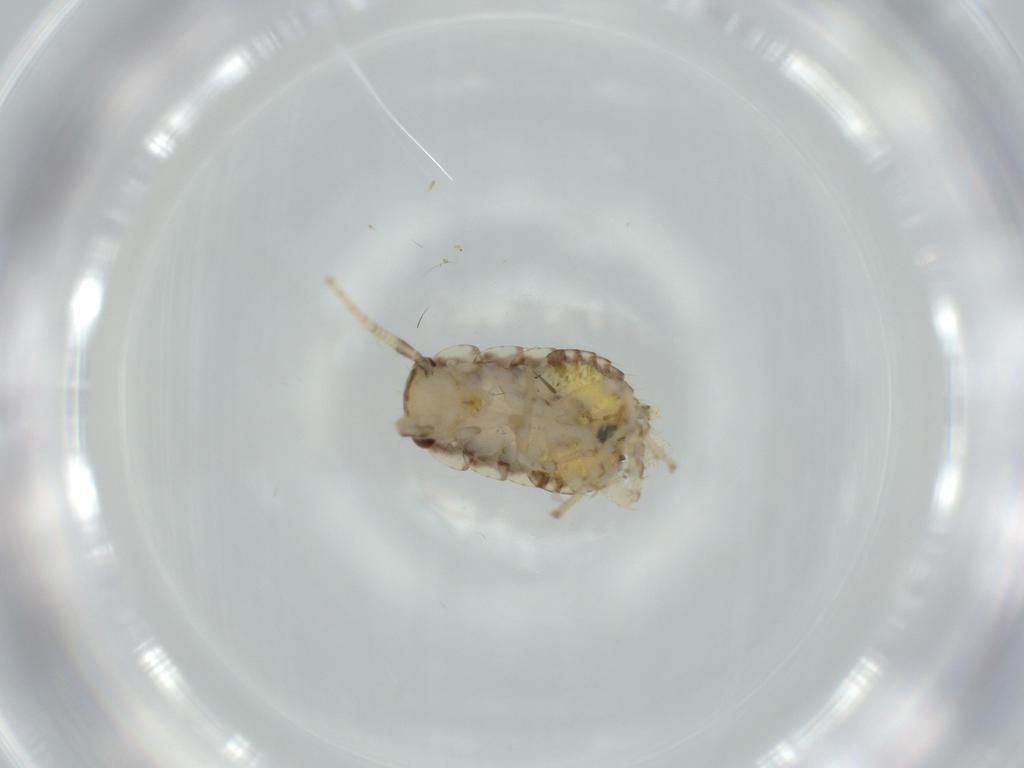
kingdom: Animalia
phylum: Arthropoda
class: Insecta
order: Blattodea
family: Ectobiidae
